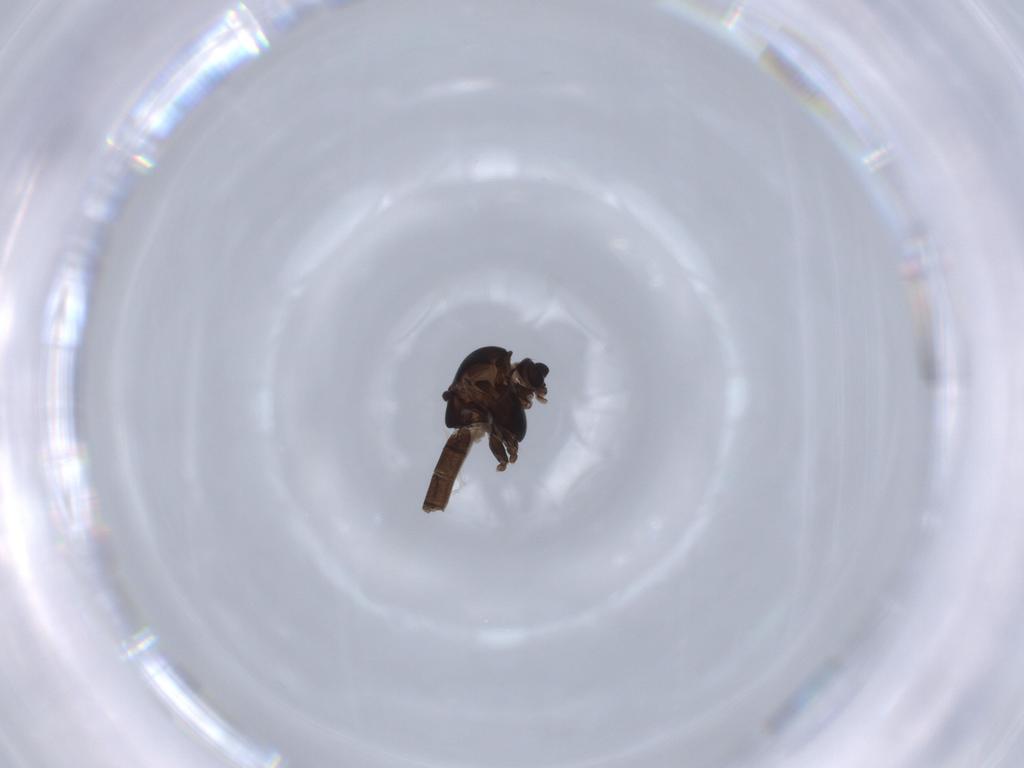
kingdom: Animalia
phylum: Arthropoda
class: Insecta
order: Diptera
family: Chironomidae
